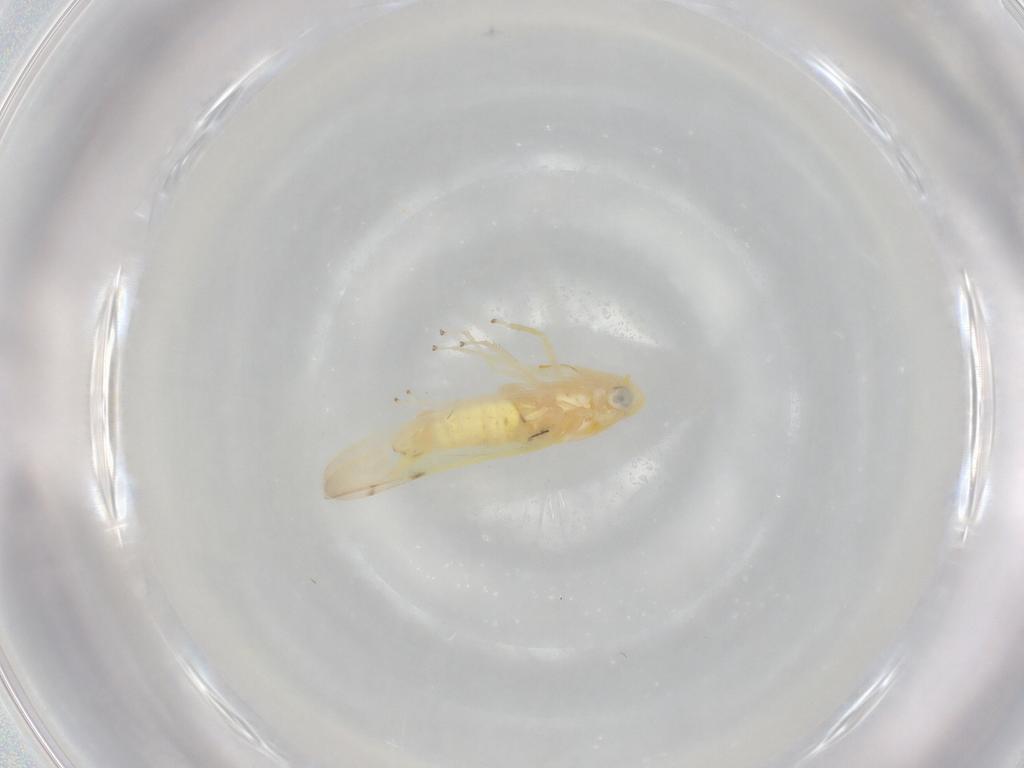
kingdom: Animalia
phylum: Arthropoda
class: Insecta
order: Hemiptera
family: Cicadellidae
